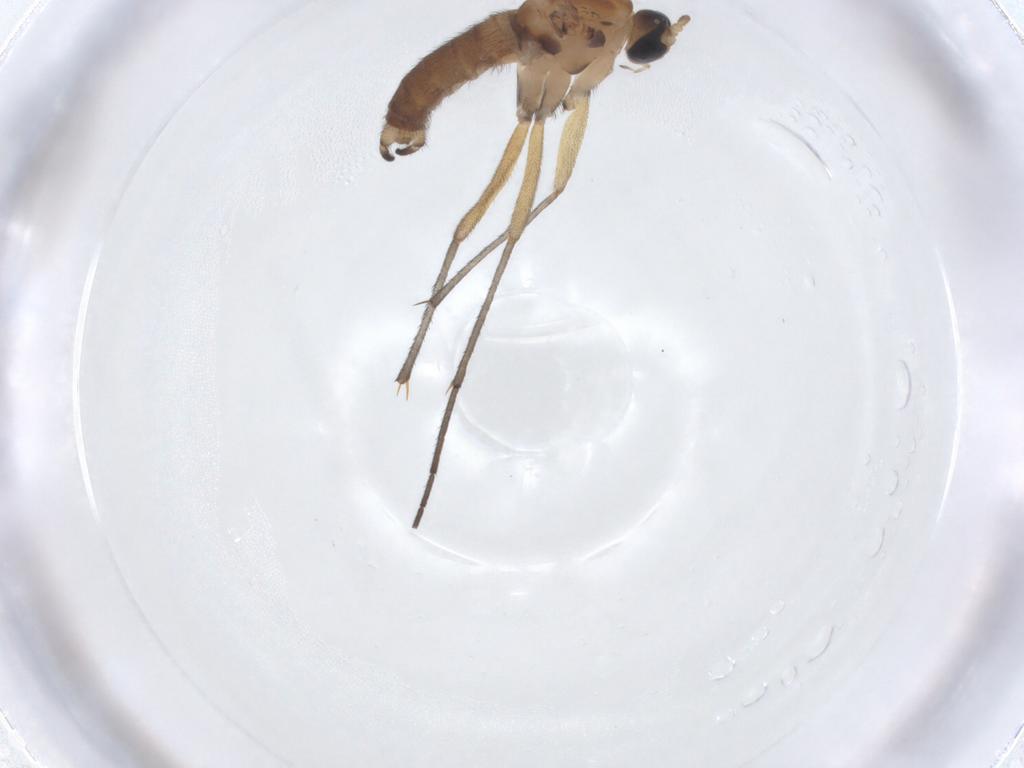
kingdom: Animalia
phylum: Arthropoda
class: Insecta
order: Diptera
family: Sciaridae
